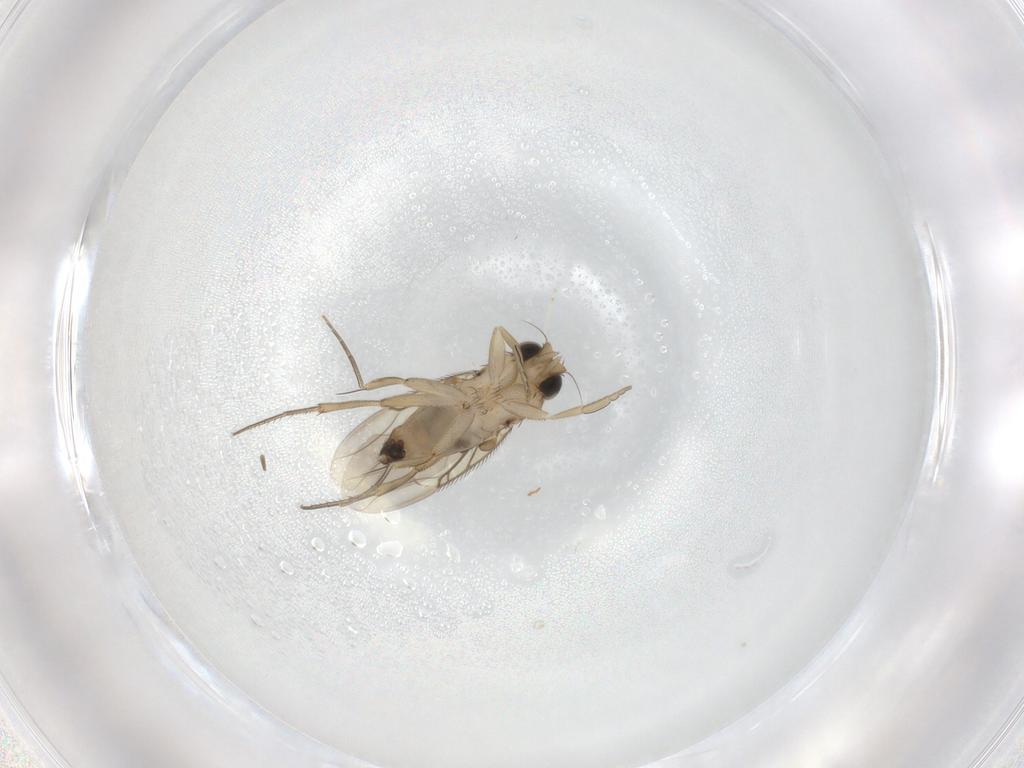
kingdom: Animalia
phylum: Arthropoda
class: Insecta
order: Diptera
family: Phoridae
